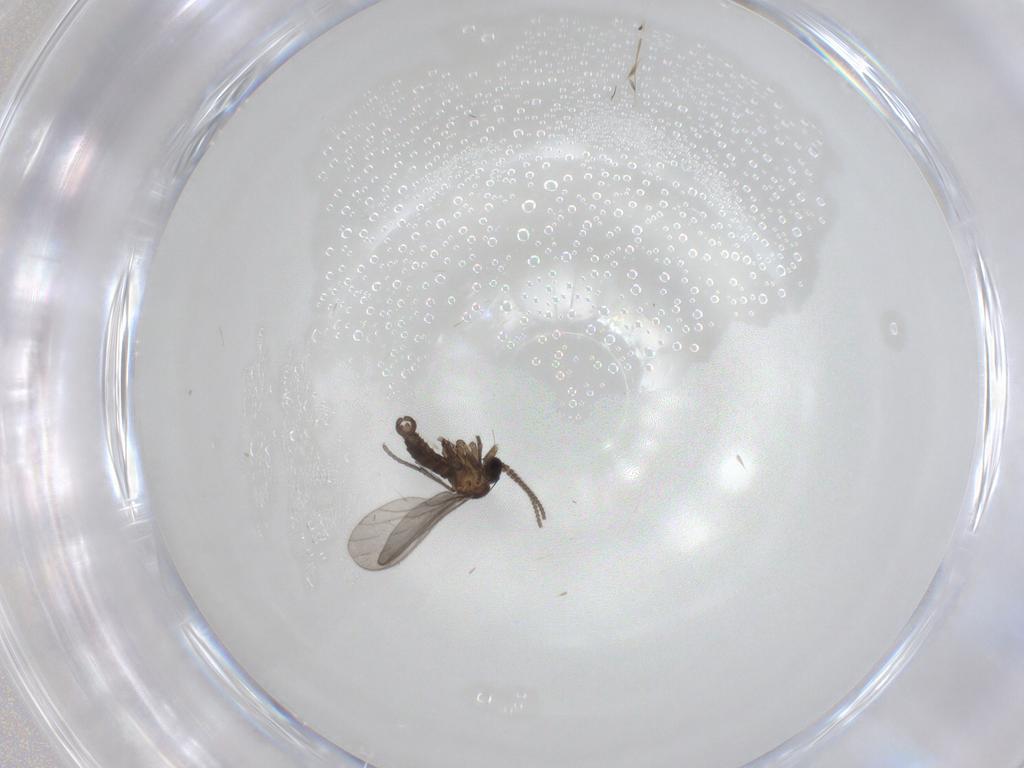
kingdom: Animalia
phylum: Arthropoda
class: Insecta
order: Diptera
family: Sciaridae
